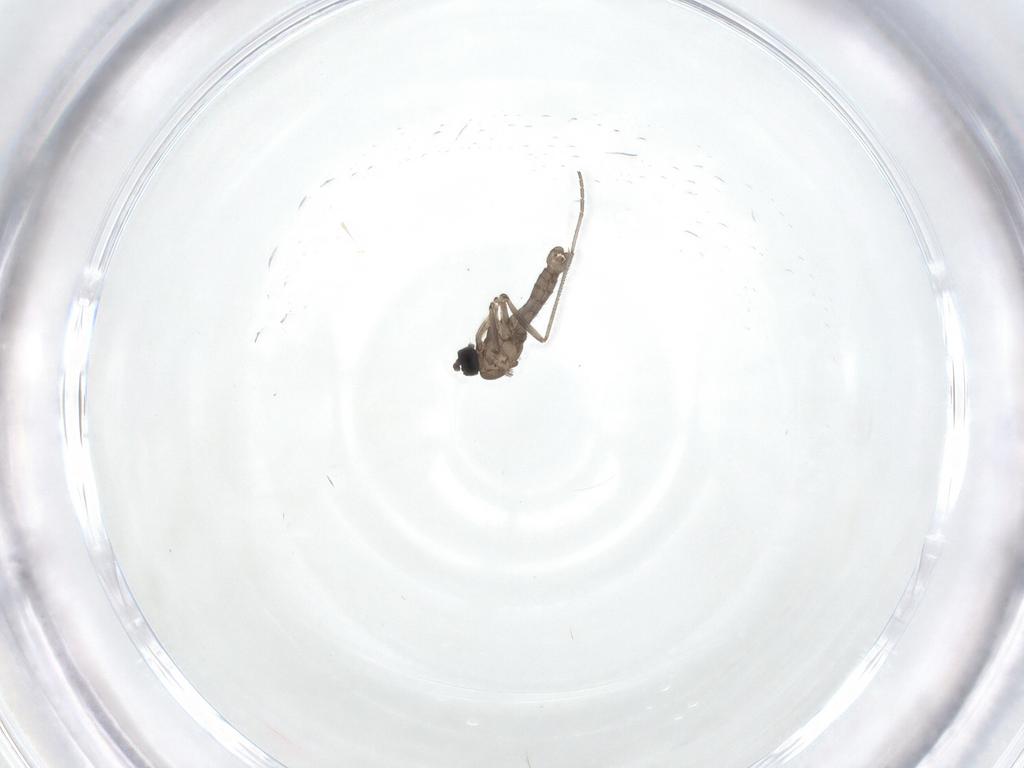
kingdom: Animalia
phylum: Arthropoda
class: Insecta
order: Diptera
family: Sciaridae
